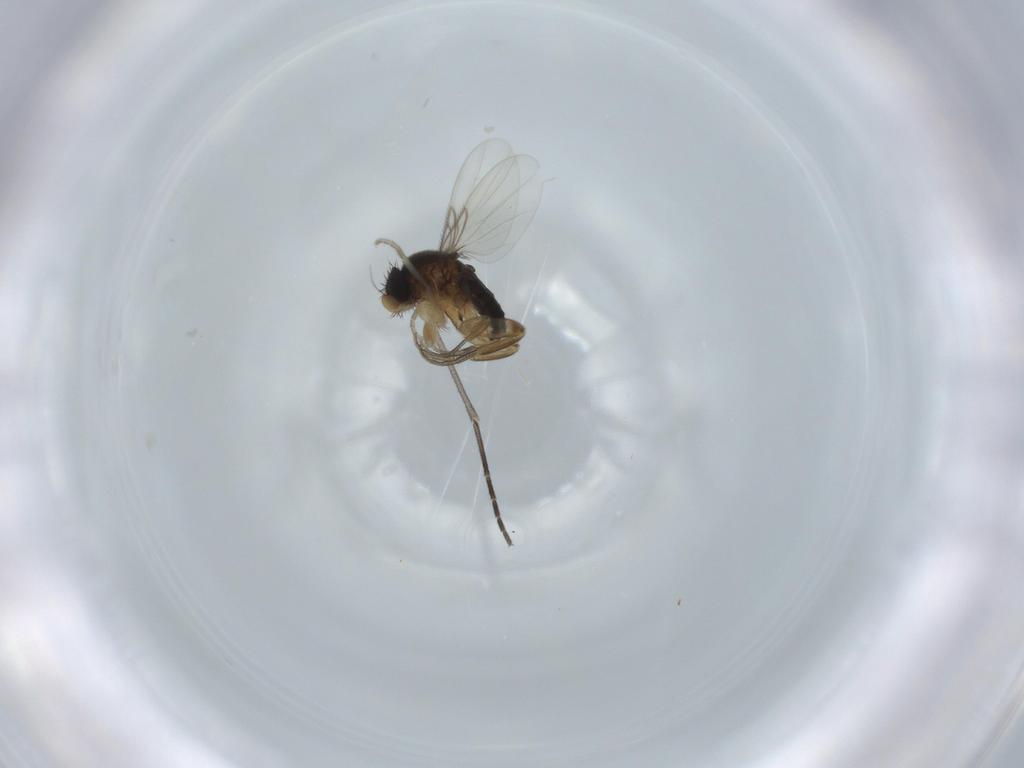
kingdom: Animalia
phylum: Arthropoda
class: Insecta
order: Diptera
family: Phoridae
